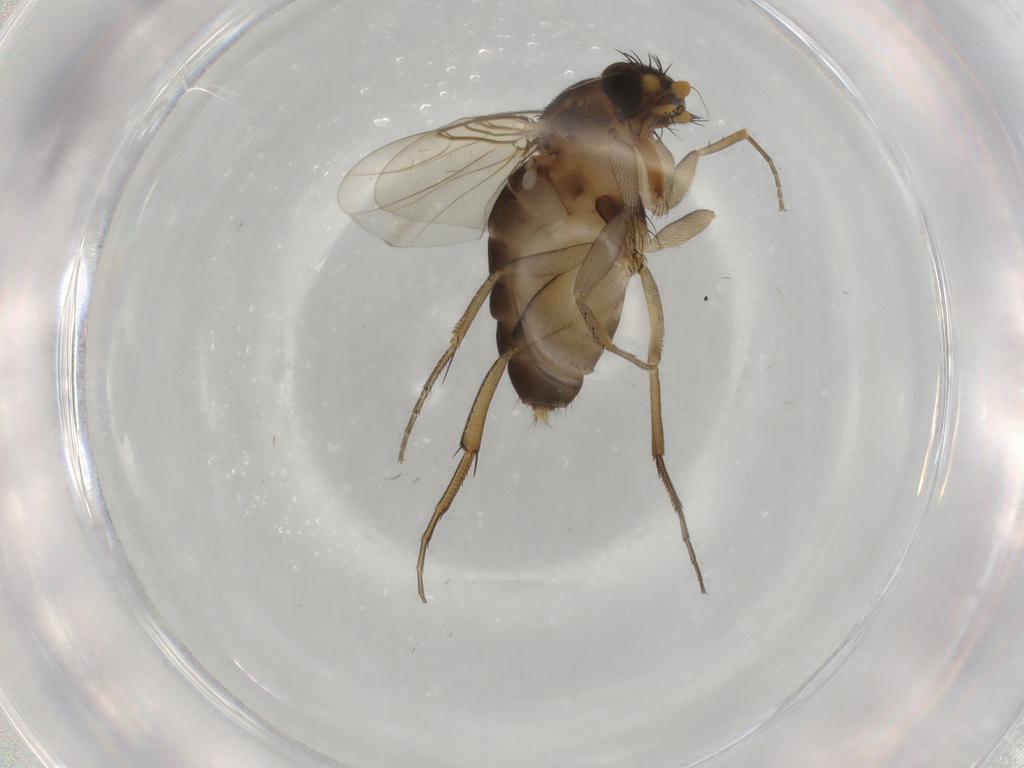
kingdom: Animalia
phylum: Arthropoda
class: Insecta
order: Diptera
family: Phoridae
